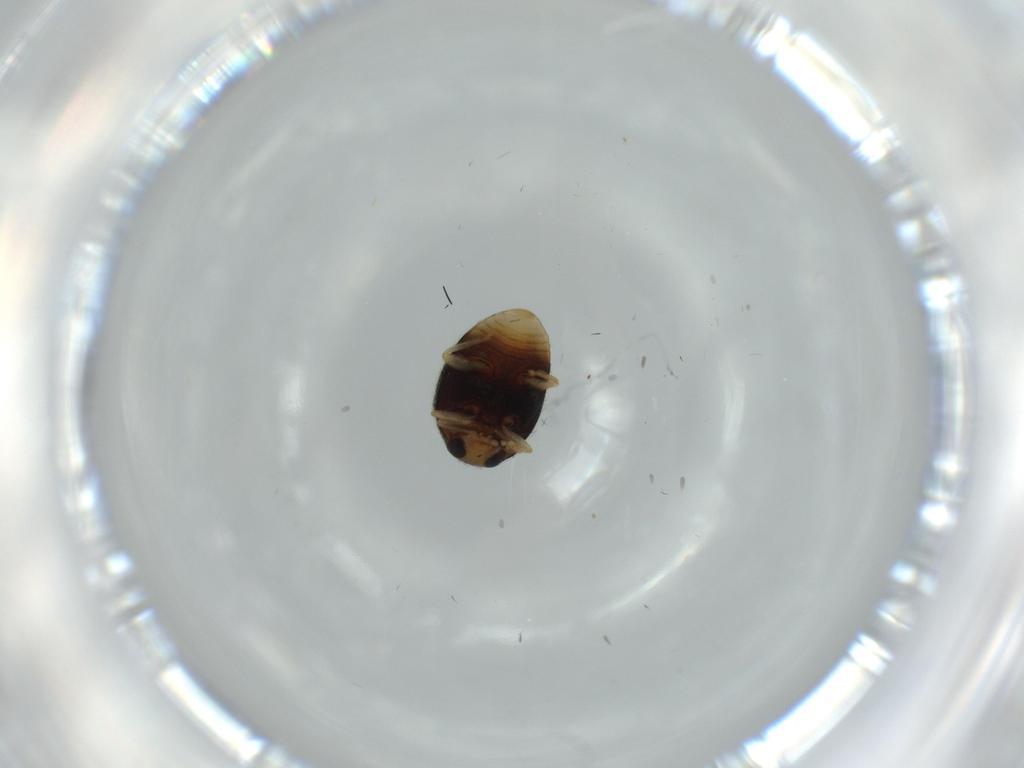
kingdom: Animalia
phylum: Arthropoda
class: Insecta
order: Coleoptera
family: Coccinellidae
